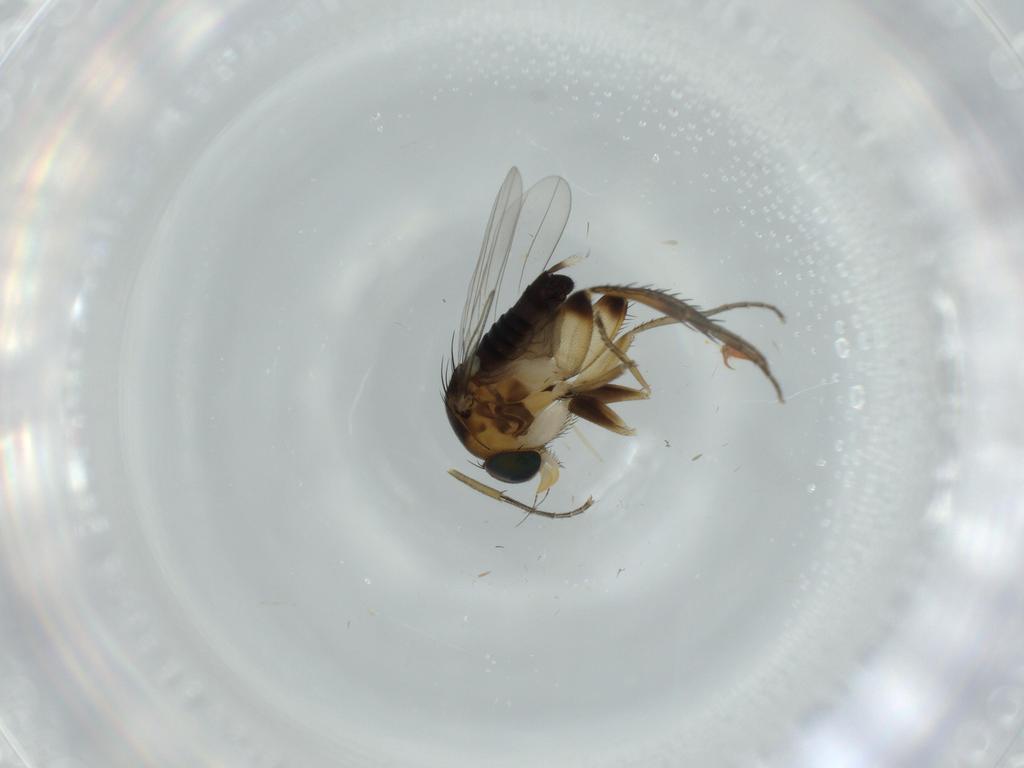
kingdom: Animalia
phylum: Arthropoda
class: Insecta
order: Diptera
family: Phoridae
